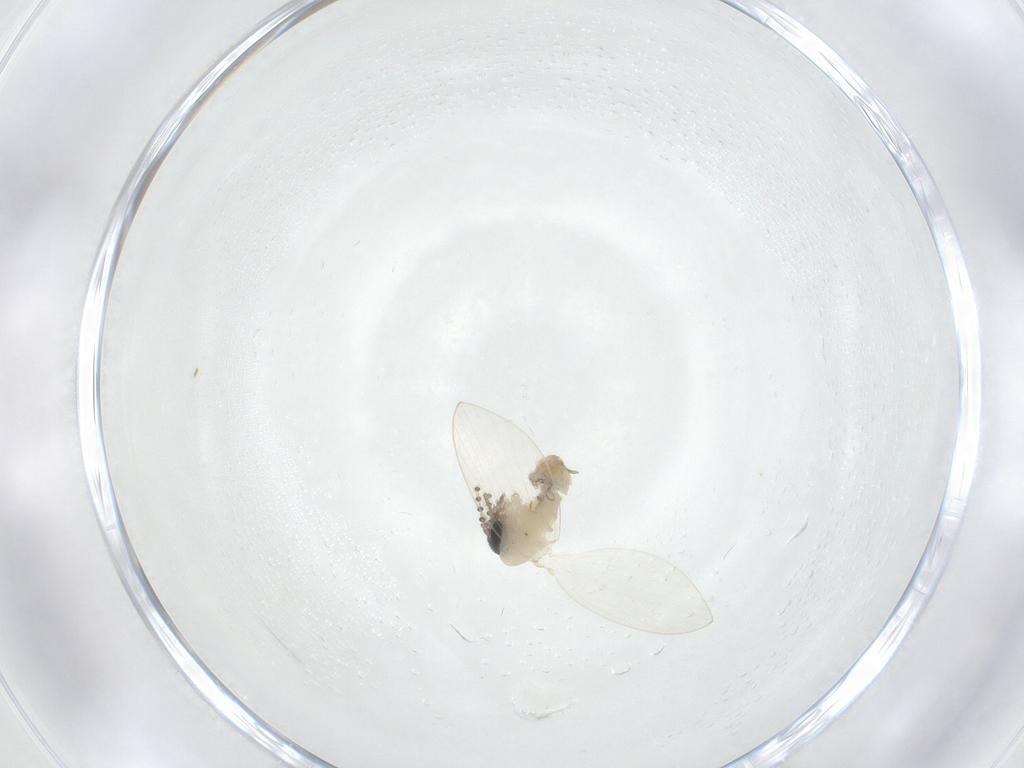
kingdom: Animalia
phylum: Arthropoda
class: Insecta
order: Diptera
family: Psychodidae
